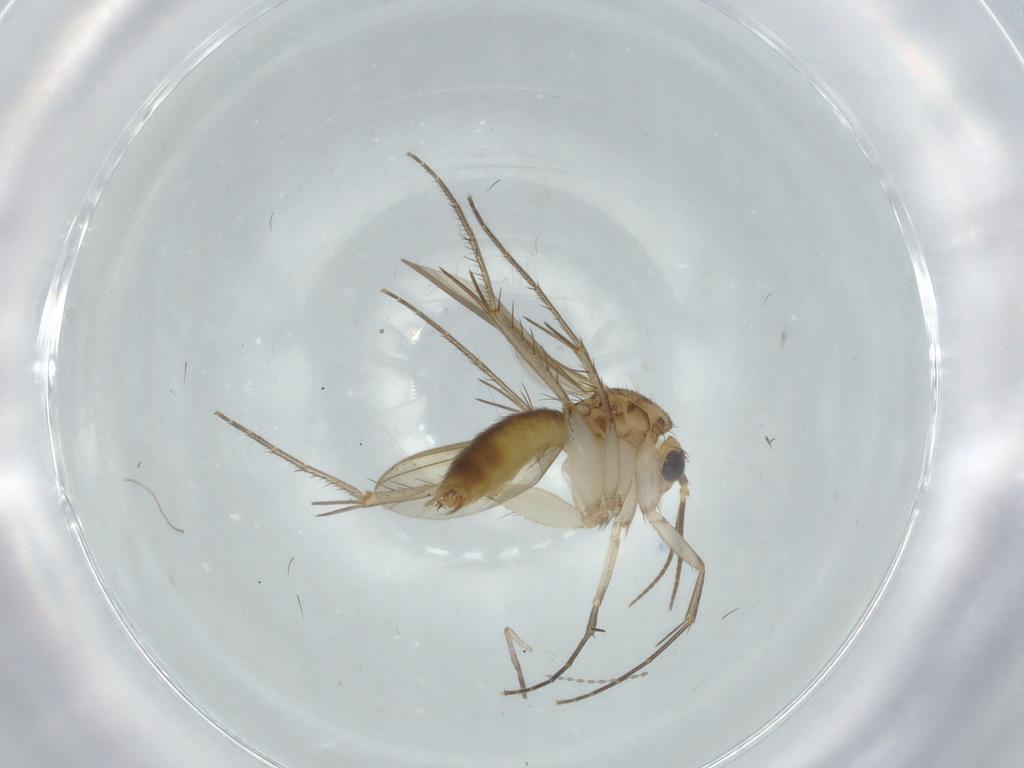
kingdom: Animalia
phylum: Arthropoda
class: Insecta
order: Diptera
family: Mycetophilidae
